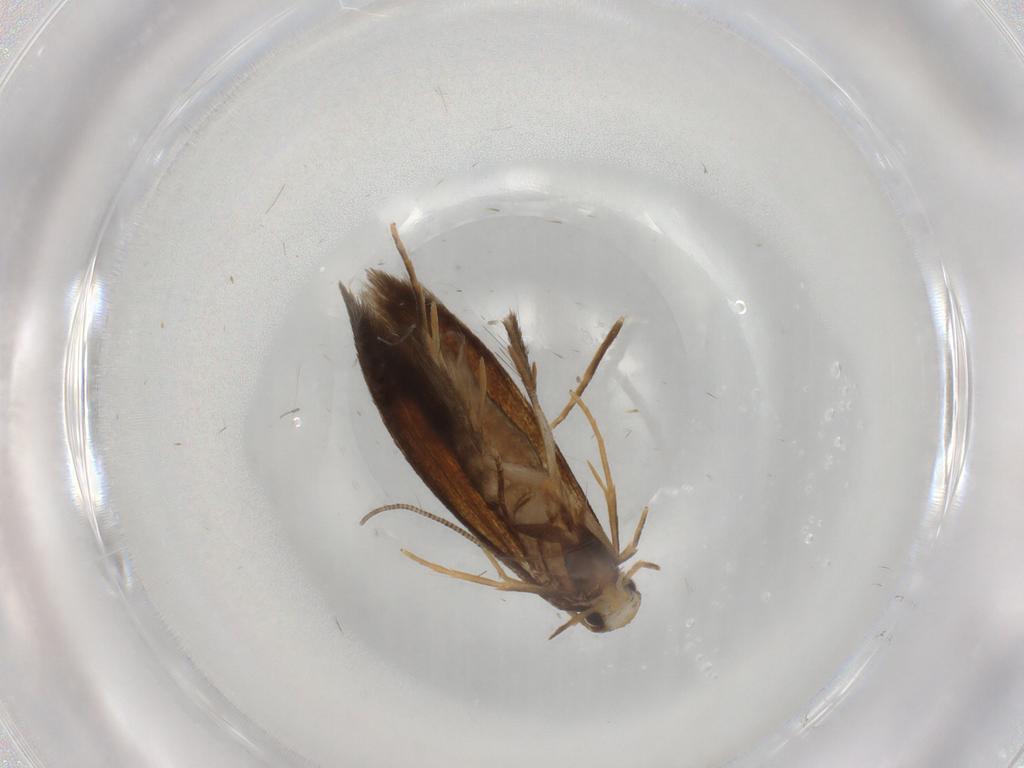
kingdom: Animalia
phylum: Arthropoda
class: Insecta
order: Lepidoptera
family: Tineidae
